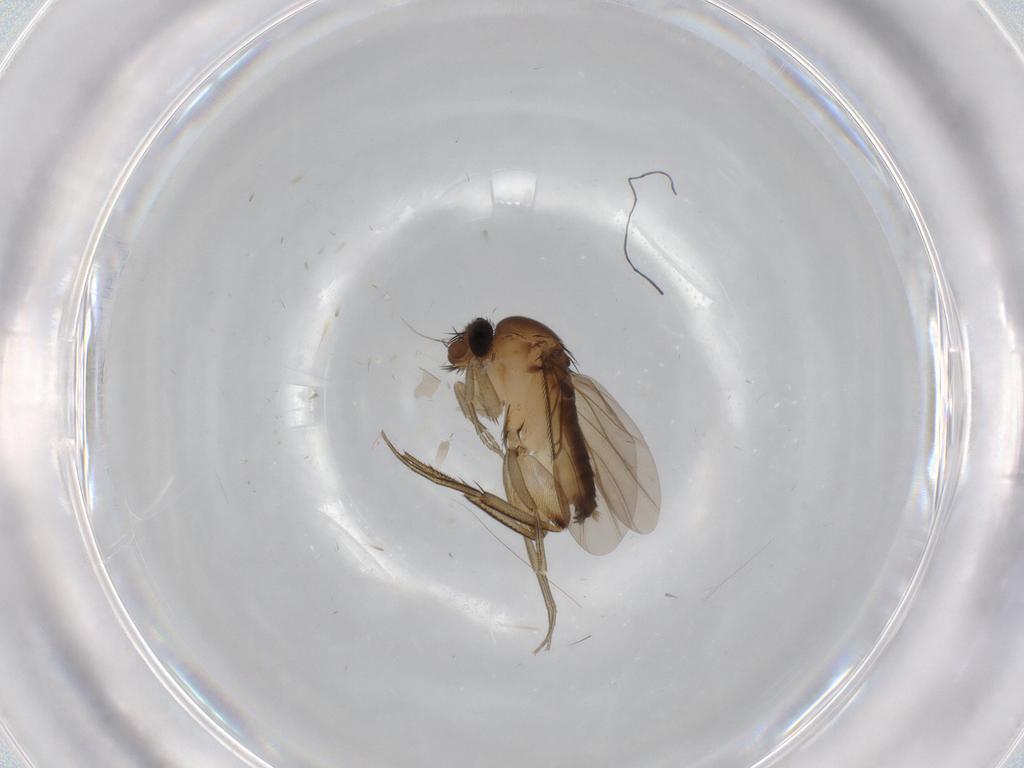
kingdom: Animalia
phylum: Arthropoda
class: Insecta
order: Diptera
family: Phoridae
